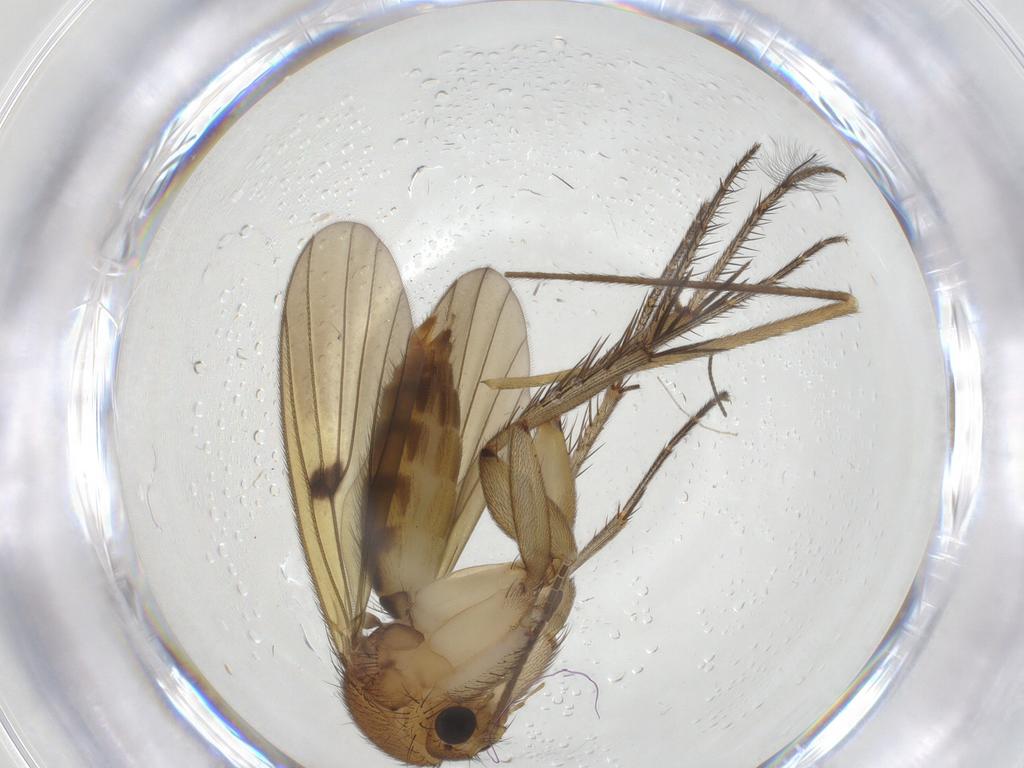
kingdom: Animalia
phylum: Arthropoda
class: Insecta
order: Diptera
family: Mycetophilidae
